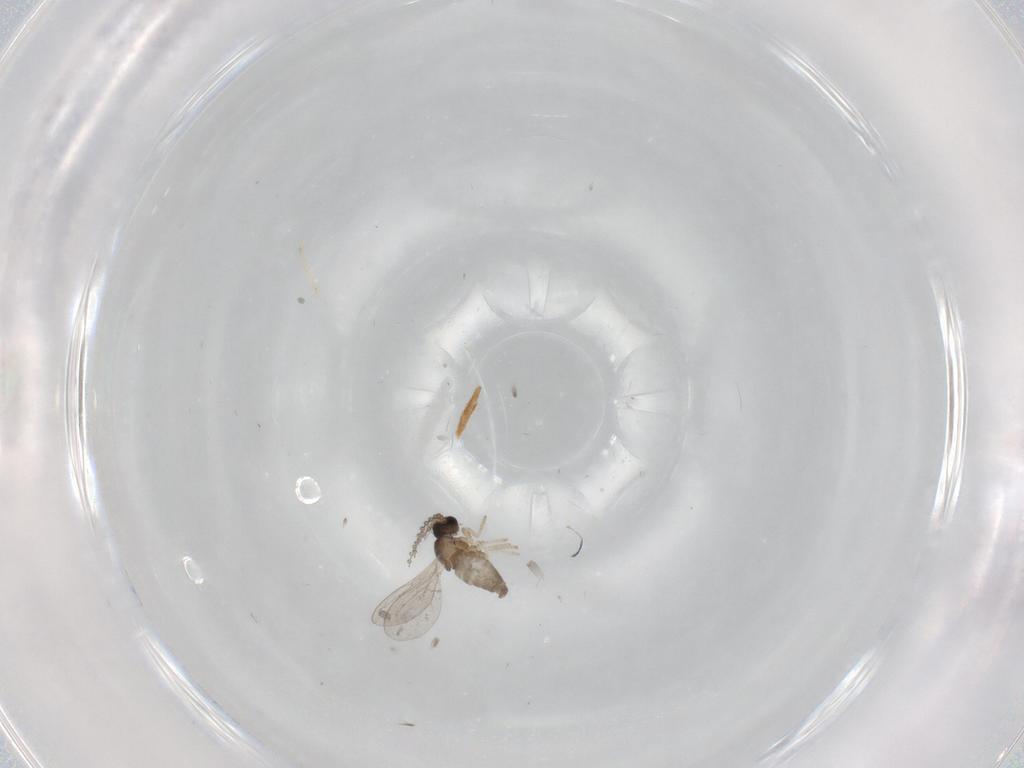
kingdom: Animalia
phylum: Arthropoda
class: Insecta
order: Diptera
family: Cecidomyiidae
